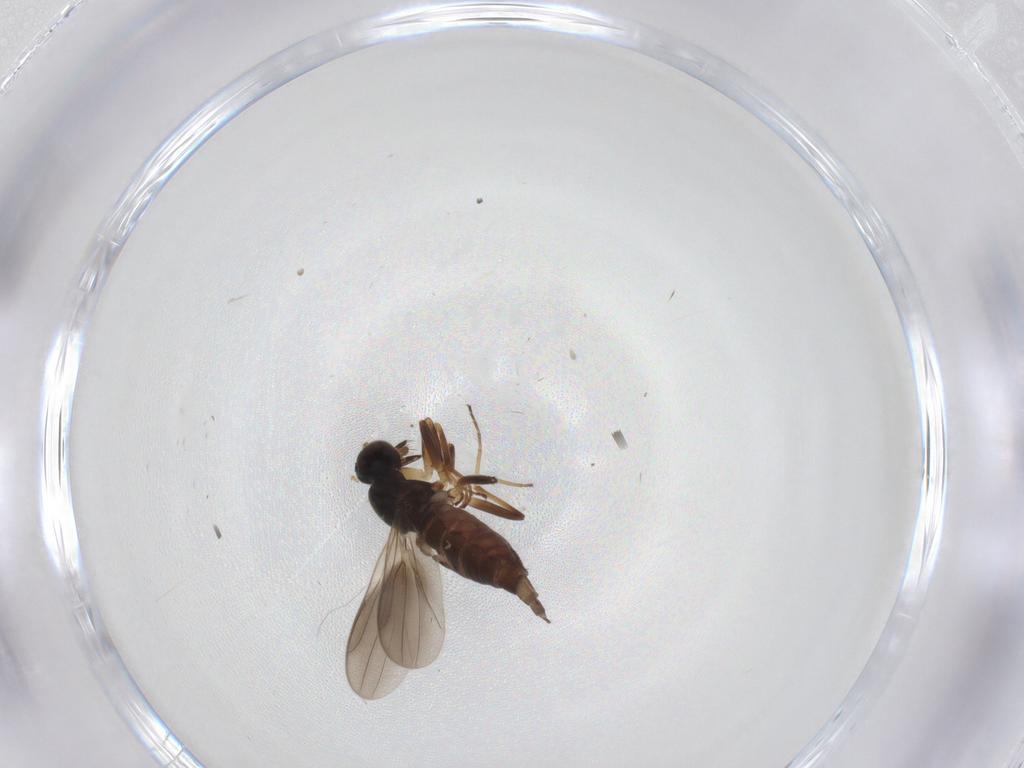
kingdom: Animalia
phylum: Arthropoda
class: Insecta
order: Diptera
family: Hybotidae
